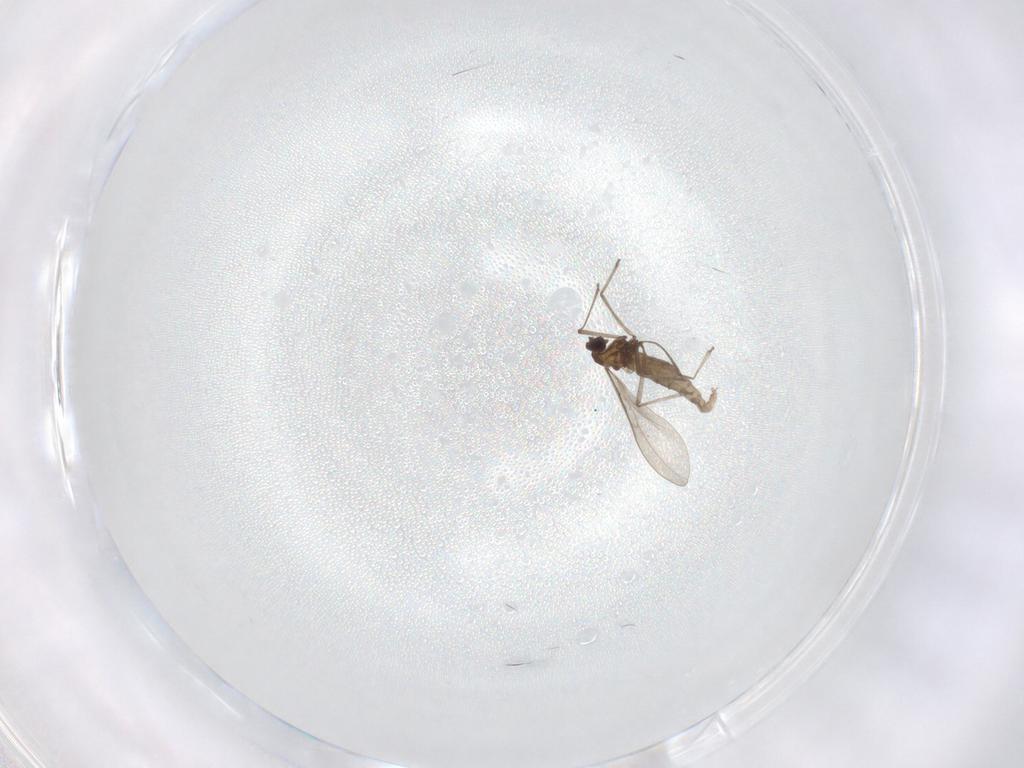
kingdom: Animalia
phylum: Arthropoda
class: Insecta
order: Diptera
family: Cecidomyiidae
